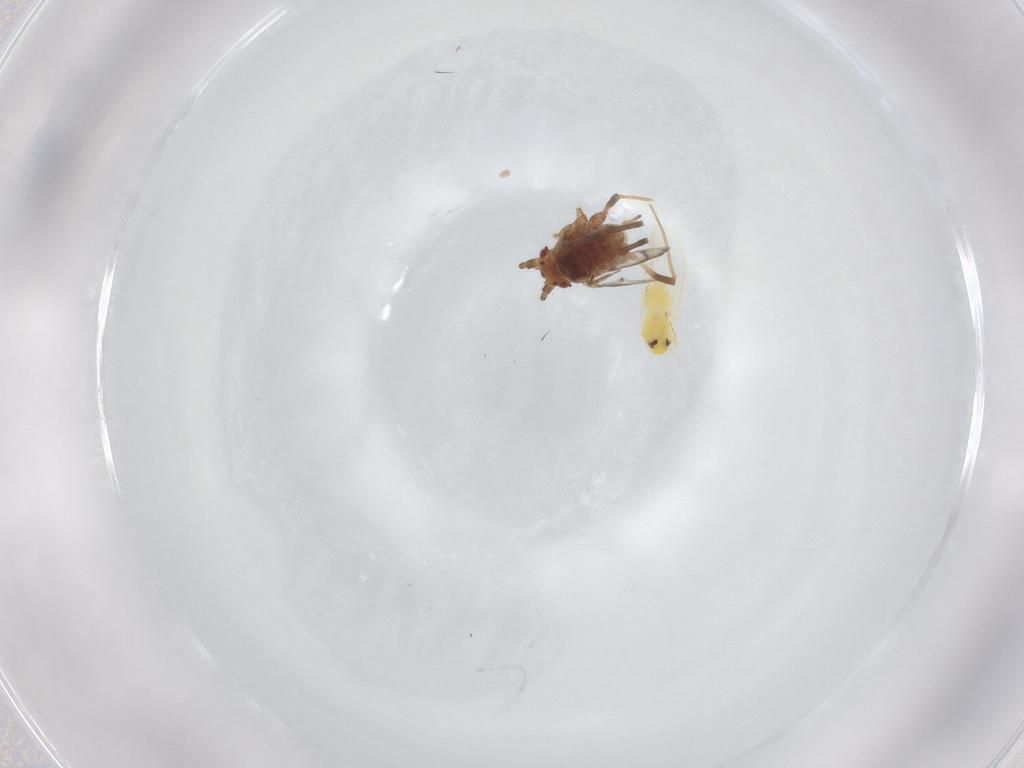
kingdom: Animalia
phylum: Arthropoda
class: Insecta
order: Hemiptera
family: Aphididae
